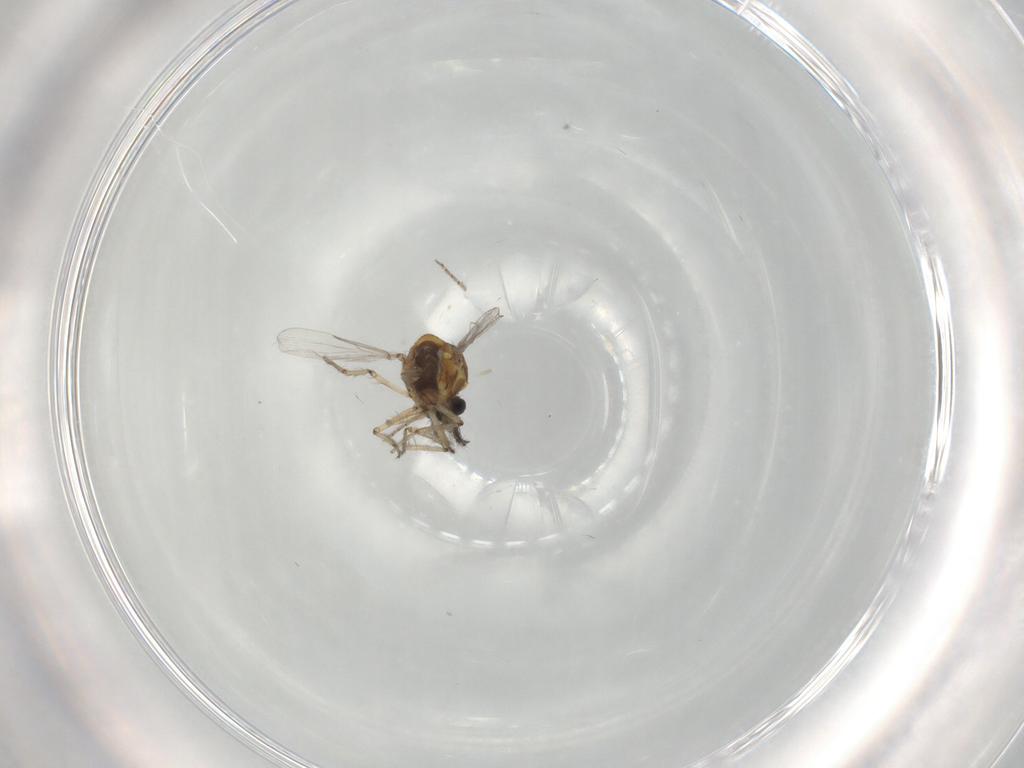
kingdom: Animalia
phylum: Arthropoda
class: Insecta
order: Diptera
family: Ceratopogonidae
